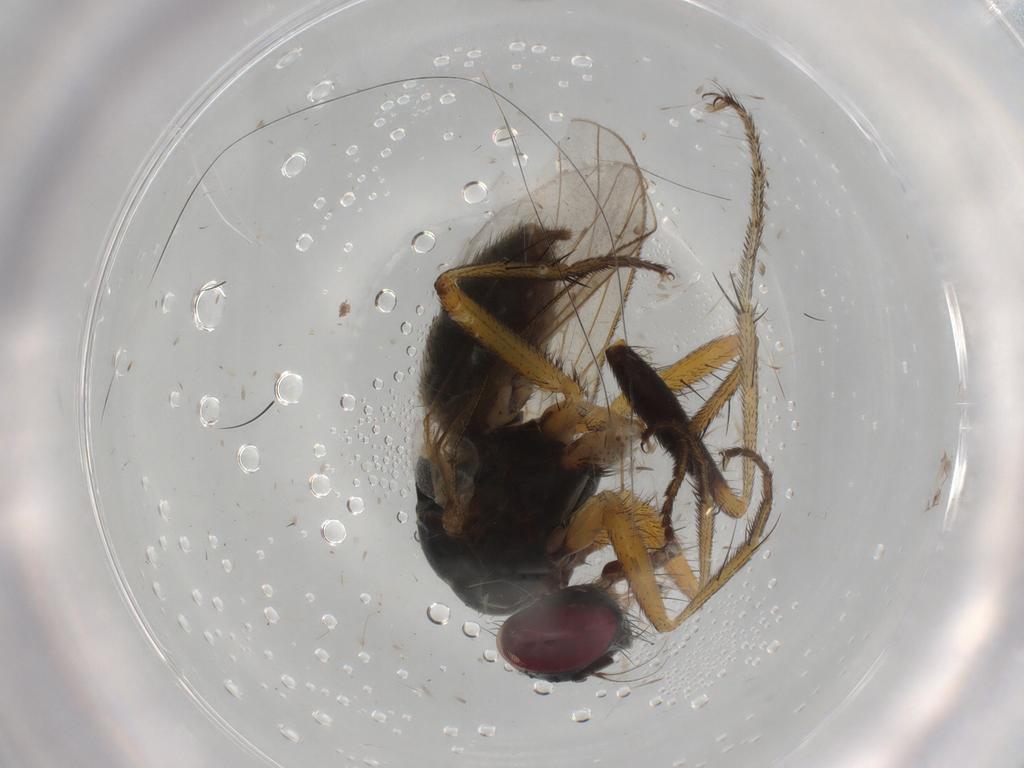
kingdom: Animalia
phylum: Arthropoda
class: Insecta
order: Diptera
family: Muscidae
